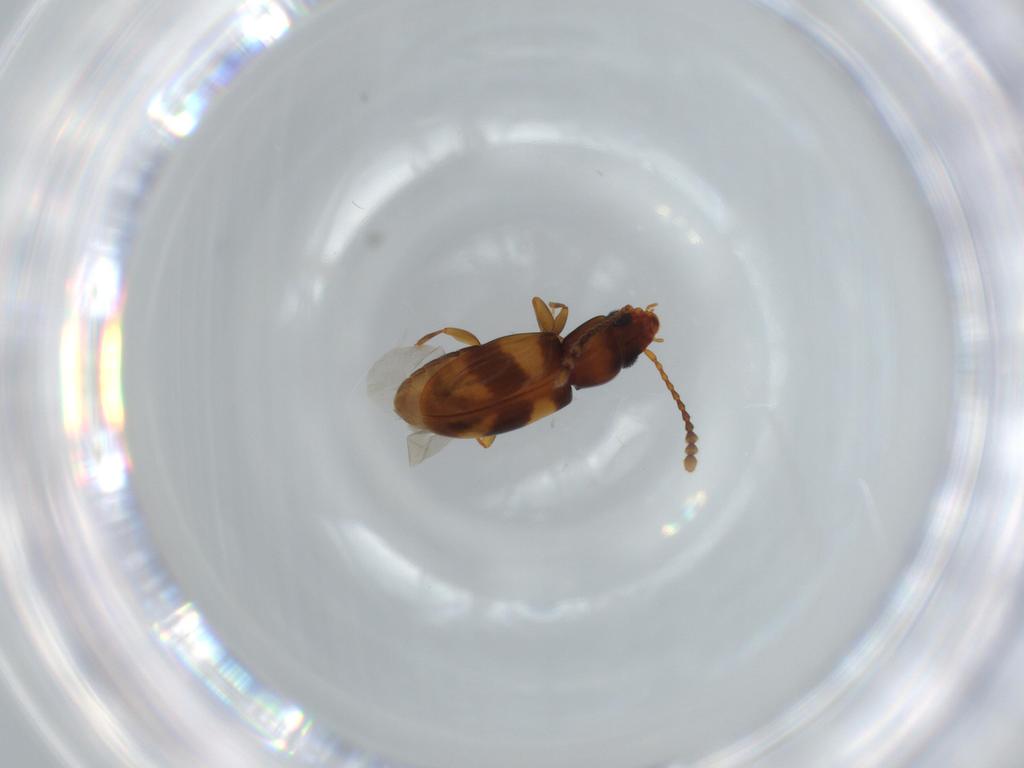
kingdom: Animalia
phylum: Arthropoda
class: Insecta
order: Coleoptera
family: Laemophloeidae
